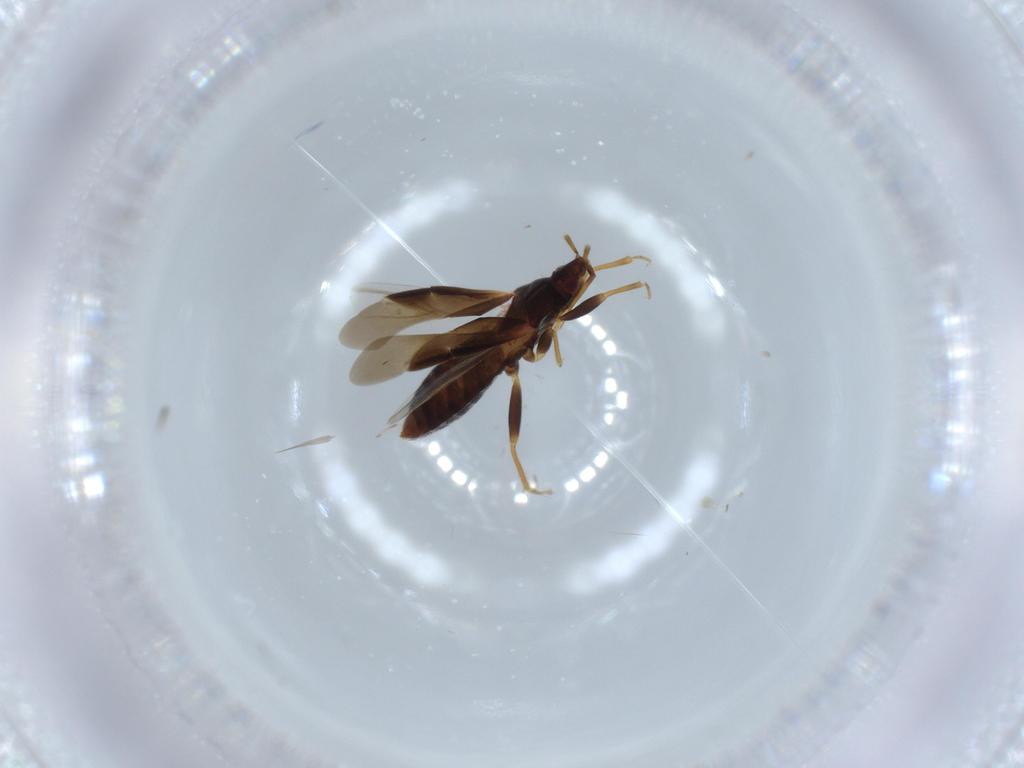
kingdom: Animalia
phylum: Arthropoda
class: Insecta
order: Hemiptera
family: Anthocoridae
